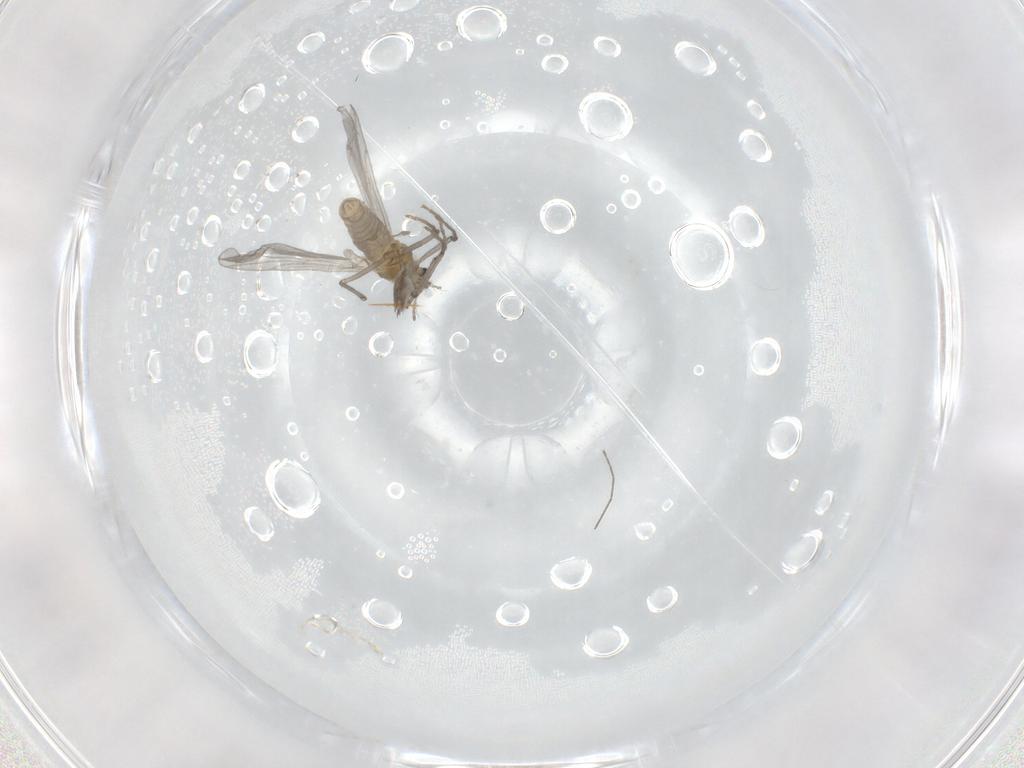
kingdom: Animalia
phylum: Arthropoda
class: Insecta
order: Diptera
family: Chironomidae
